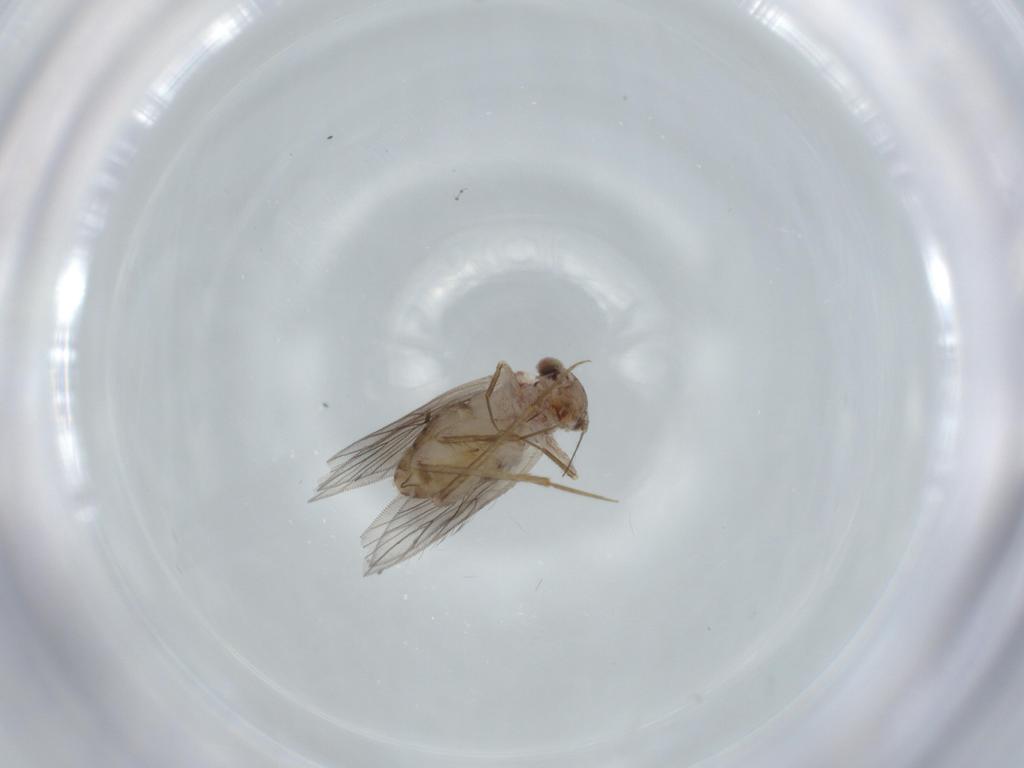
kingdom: Animalia
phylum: Arthropoda
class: Insecta
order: Psocodea
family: Lepidopsocidae
